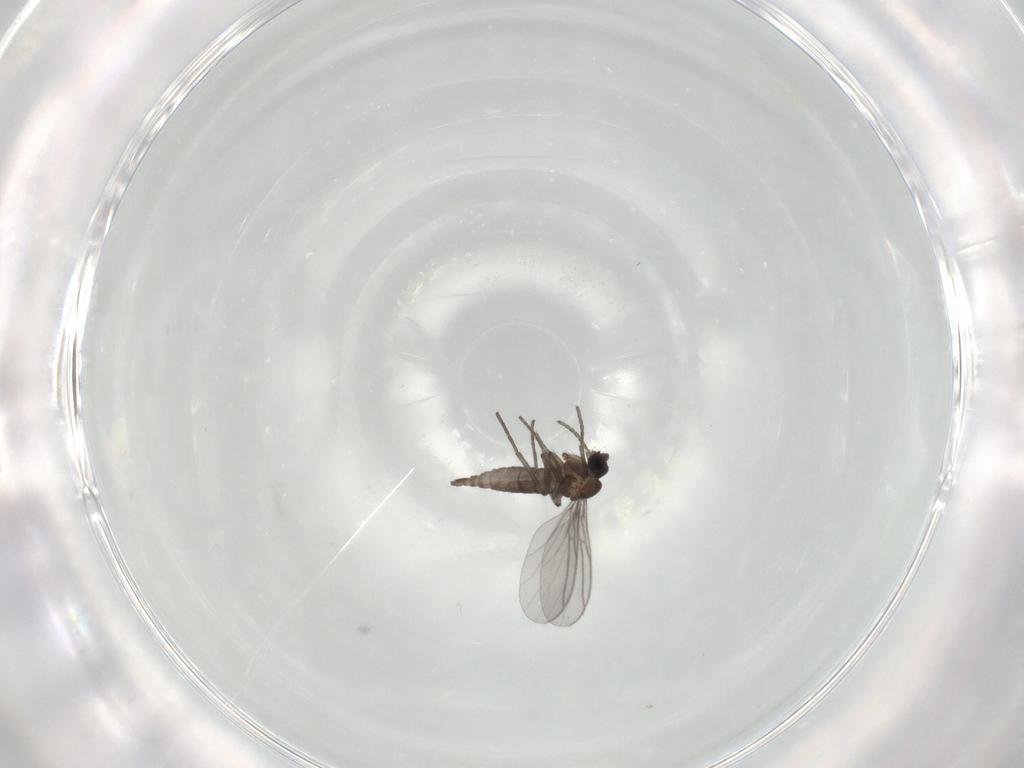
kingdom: Animalia
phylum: Arthropoda
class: Insecta
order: Diptera
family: Sciaridae
